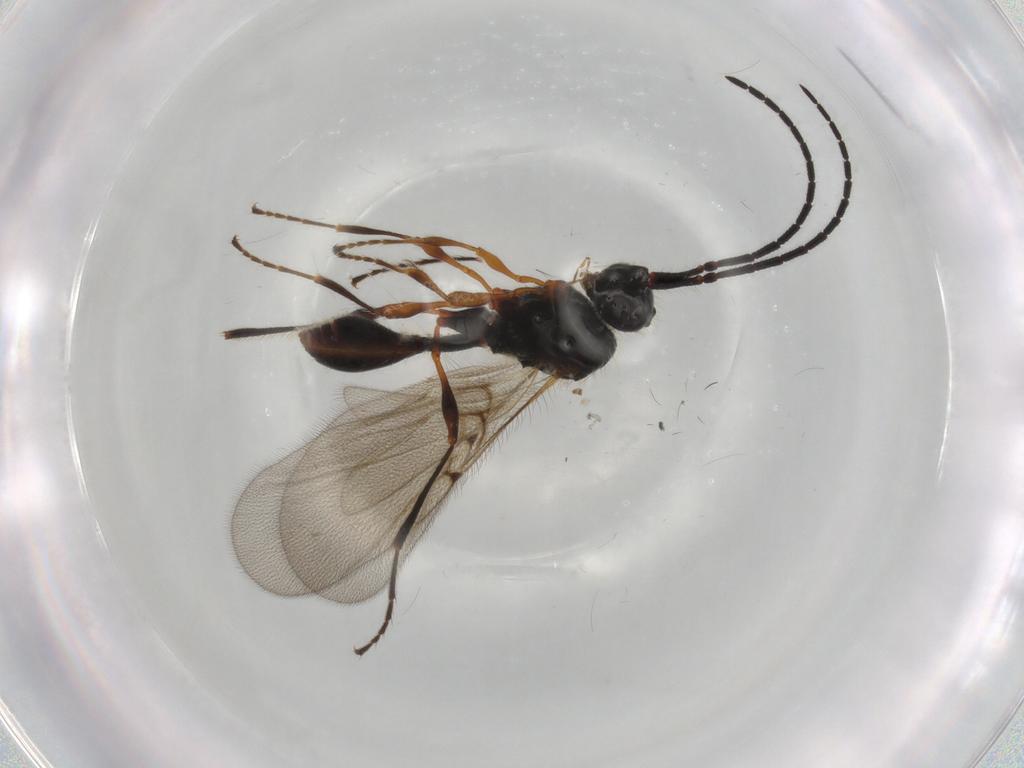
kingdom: Animalia
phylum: Arthropoda
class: Insecta
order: Hymenoptera
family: Diapriidae
